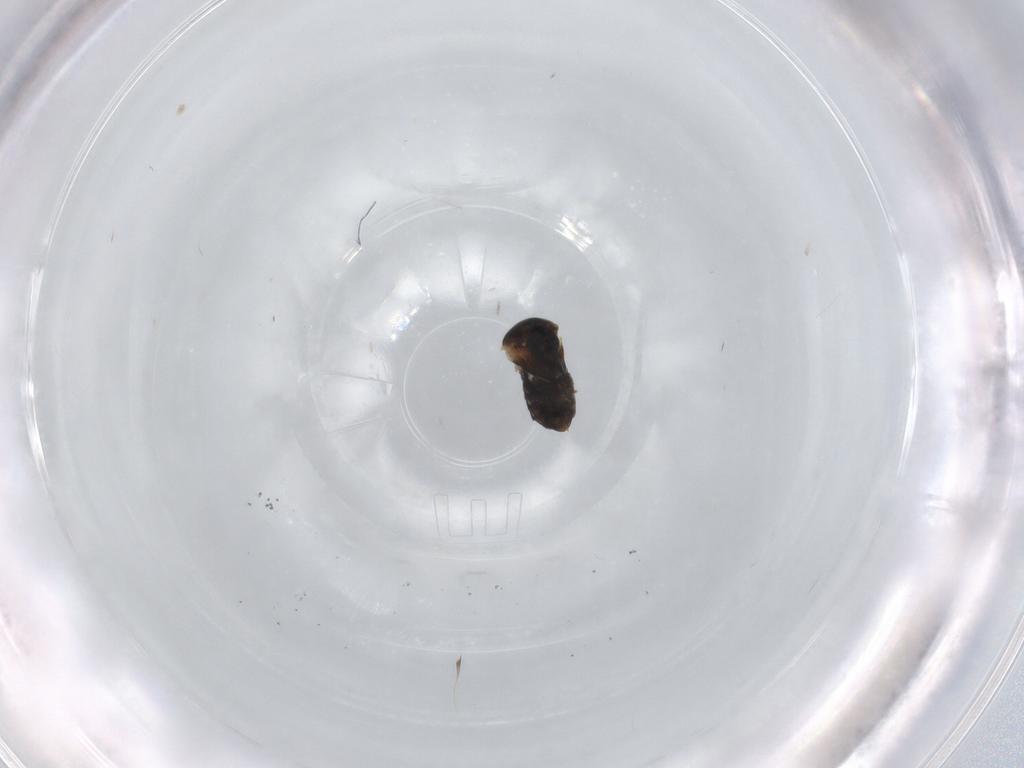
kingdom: Animalia
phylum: Arthropoda
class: Insecta
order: Diptera
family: Cecidomyiidae
